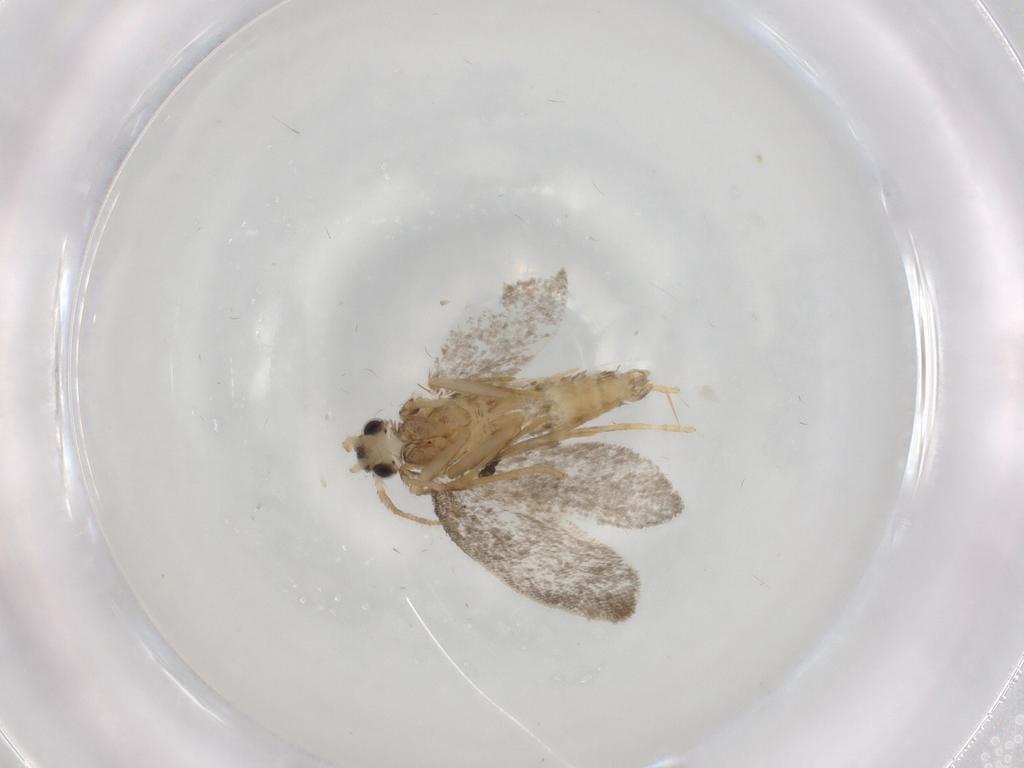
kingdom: Animalia
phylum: Arthropoda
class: Insecta
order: Lepidoptera
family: Psychidae
